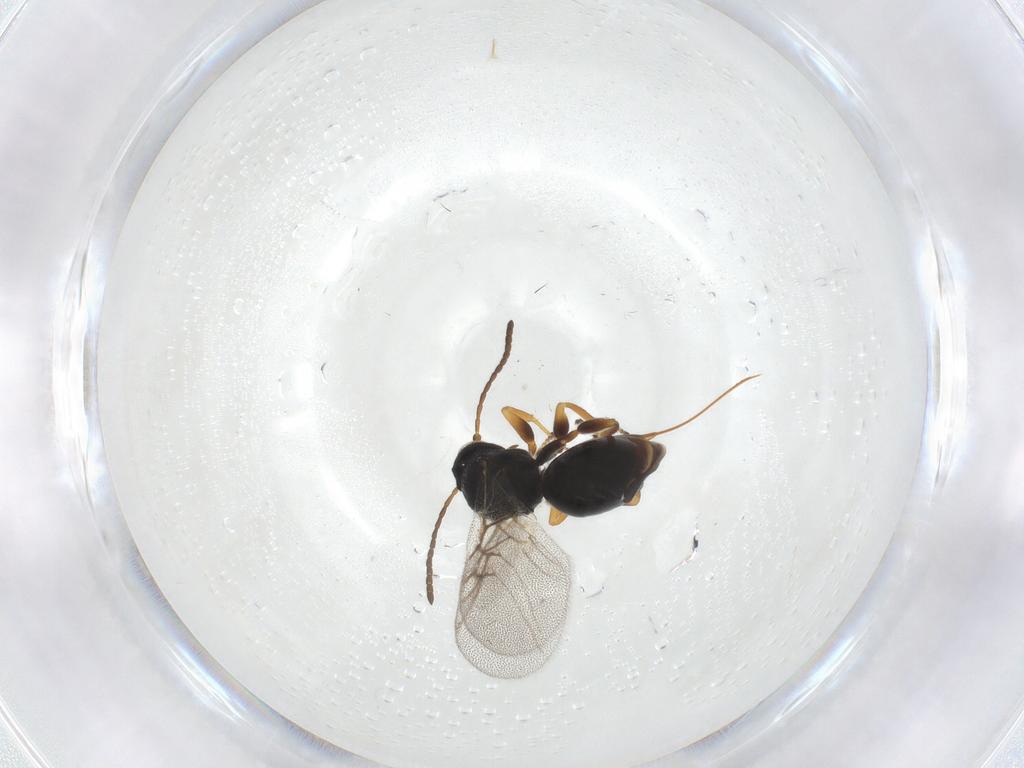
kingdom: Animalia
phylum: Arthropoda
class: Insecta
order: Hymenoptera
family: Cynipidae
